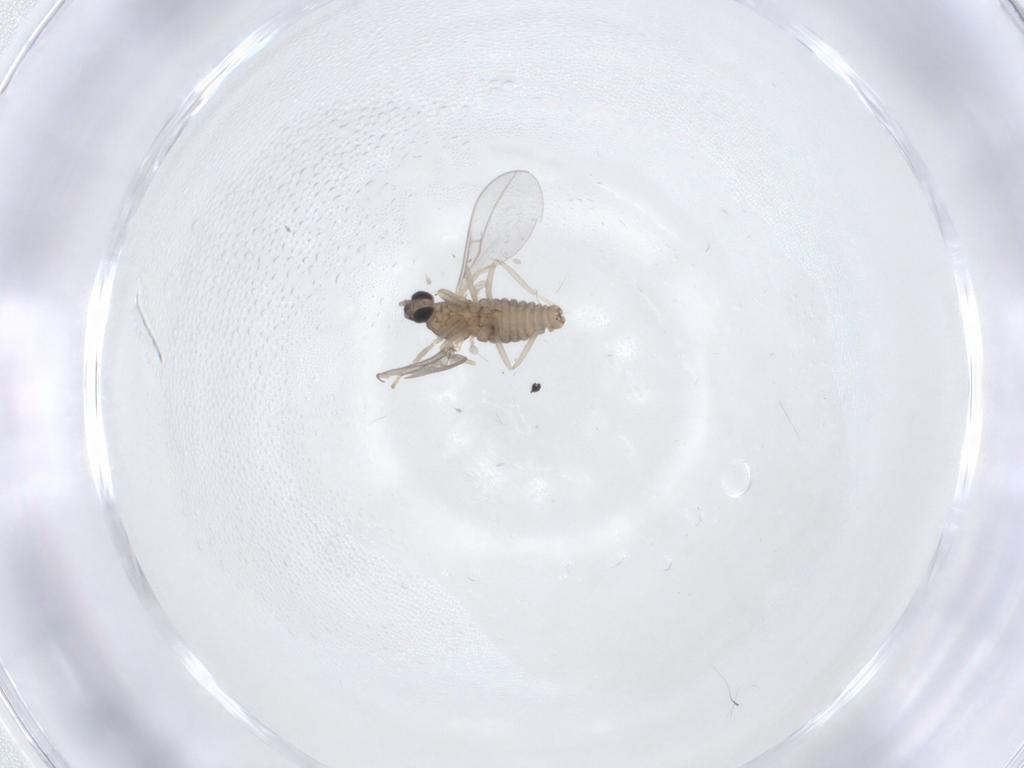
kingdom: Animalia
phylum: Arthropoda
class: Insecta
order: Diptera
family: Cecidomyiidae
